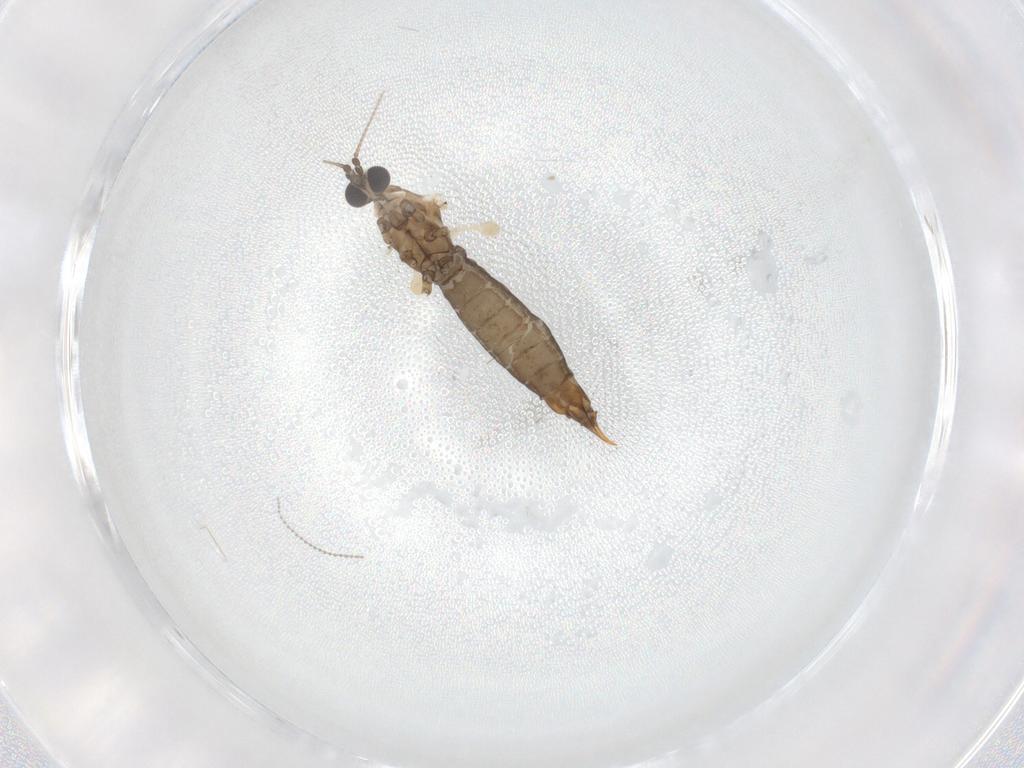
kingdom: Animalia
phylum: Arthropoda
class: Insecta
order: Diptera
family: Limoniidae
